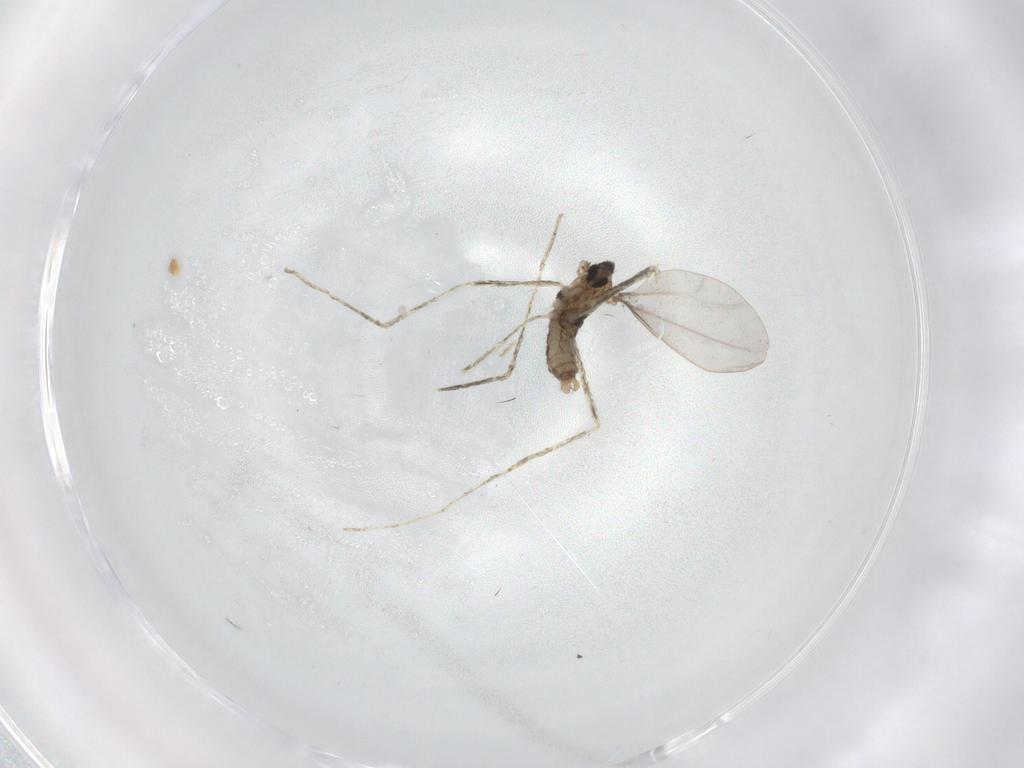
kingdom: Animalia
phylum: Arthropoda
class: Insecta
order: Diptera
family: Cecidomyiidae
